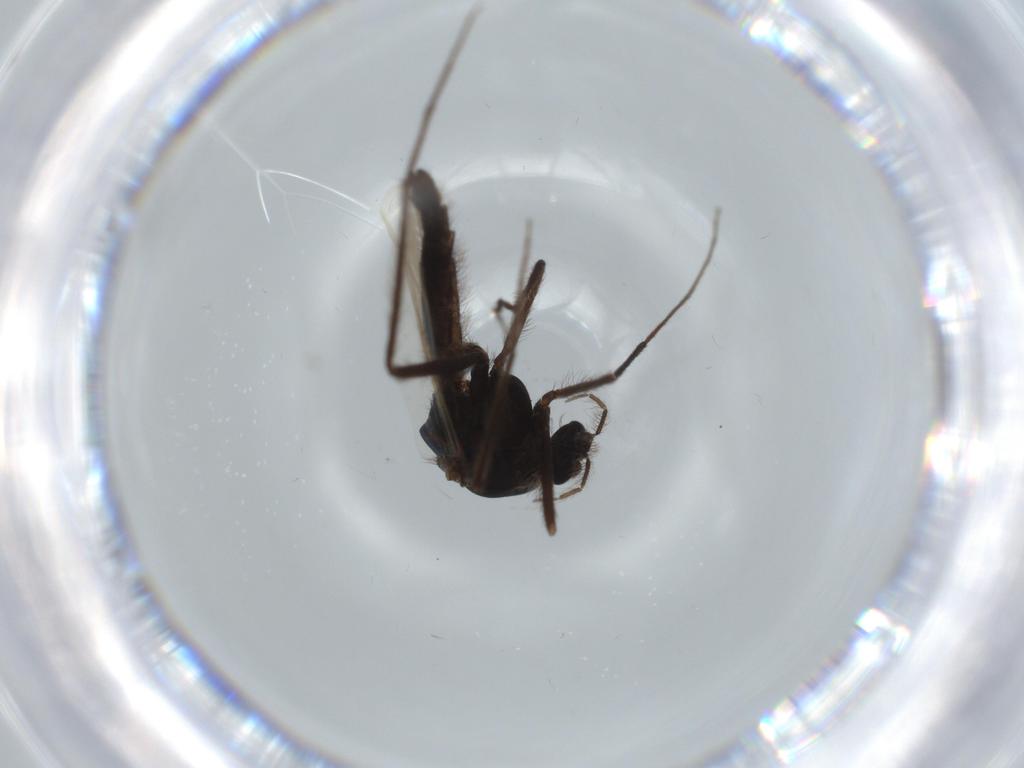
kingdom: Animalia
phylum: Arthropoda
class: Insecta
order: Diptera
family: Dolichopodidae
